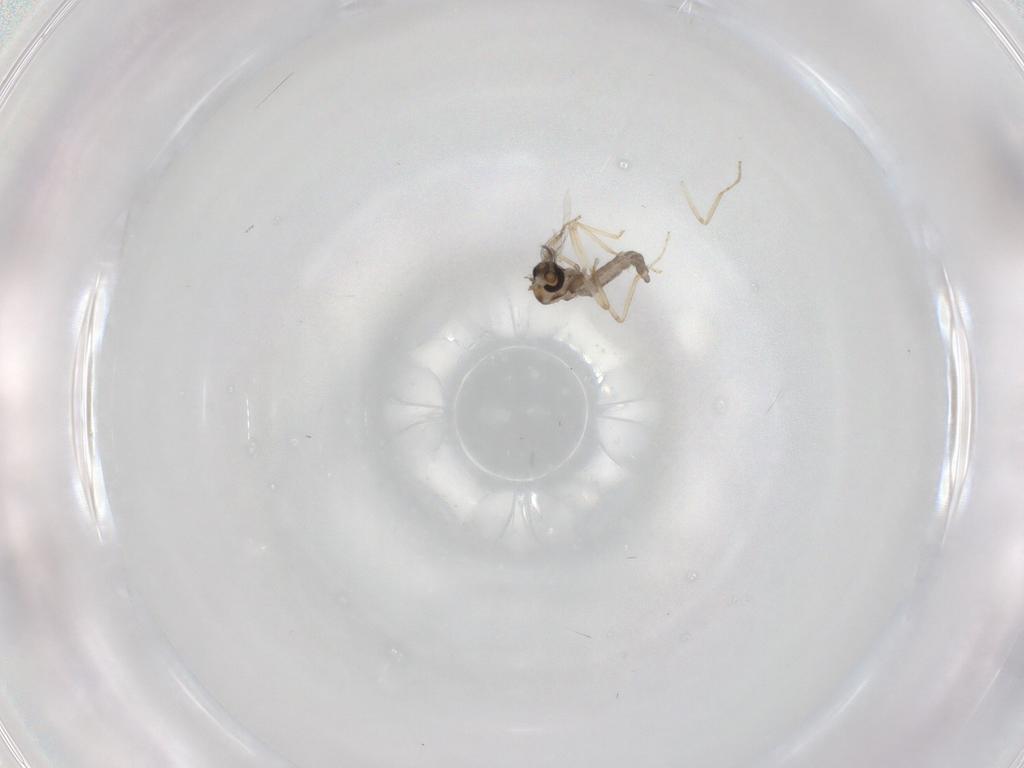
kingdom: Animalia
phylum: Arthropoda
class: Insecta
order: Diptera
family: Ceratopogonidae
